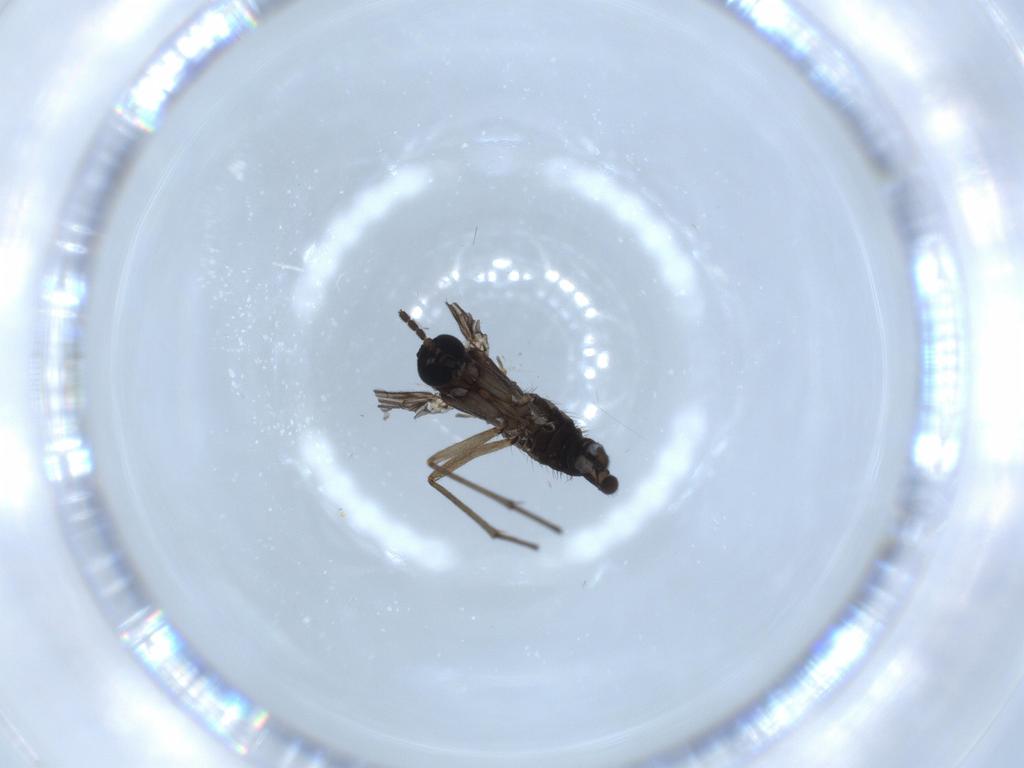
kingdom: Animalia
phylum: Arthropoda
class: Insecta
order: Diptera
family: Sciaridae
